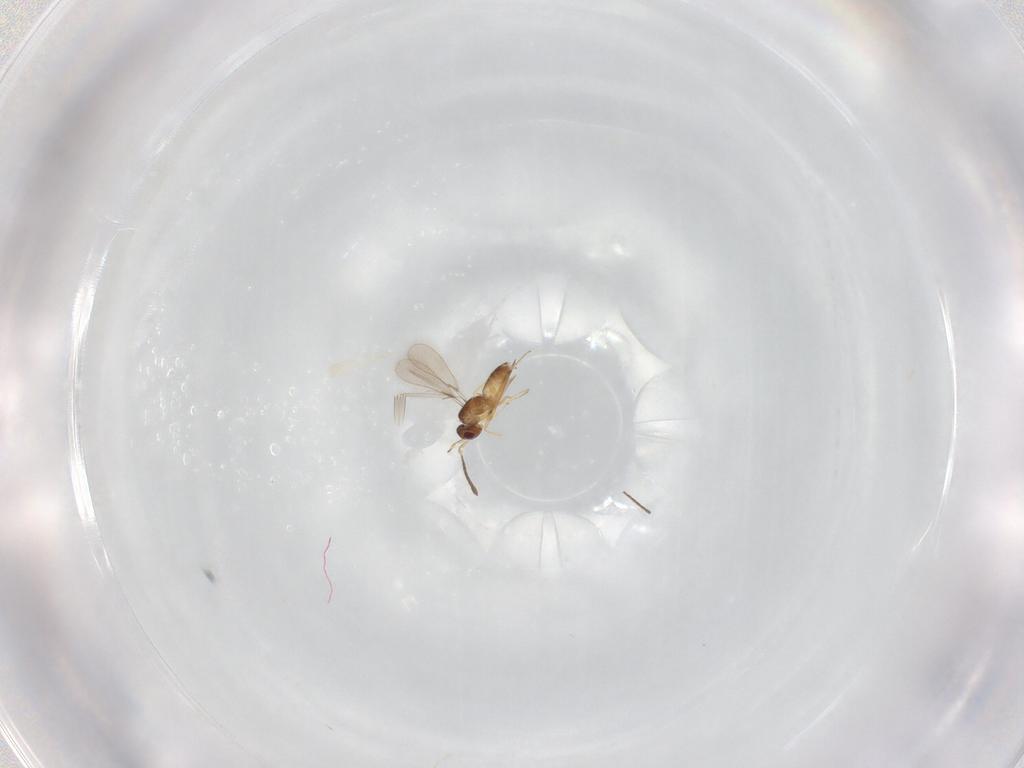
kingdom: Animalia
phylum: Arthropoda
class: Insecta
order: Hymenoptera
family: Mymaridae
